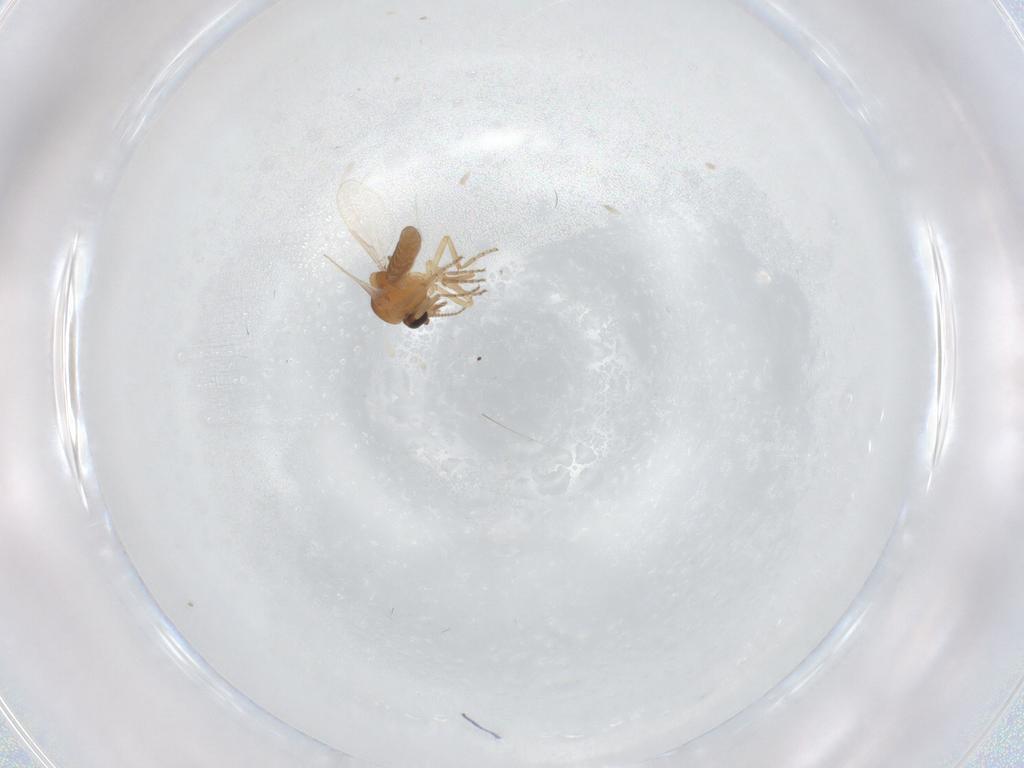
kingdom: Animalia
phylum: Arthropoda
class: Insecta
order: Diptera
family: Ceratopogonidae
